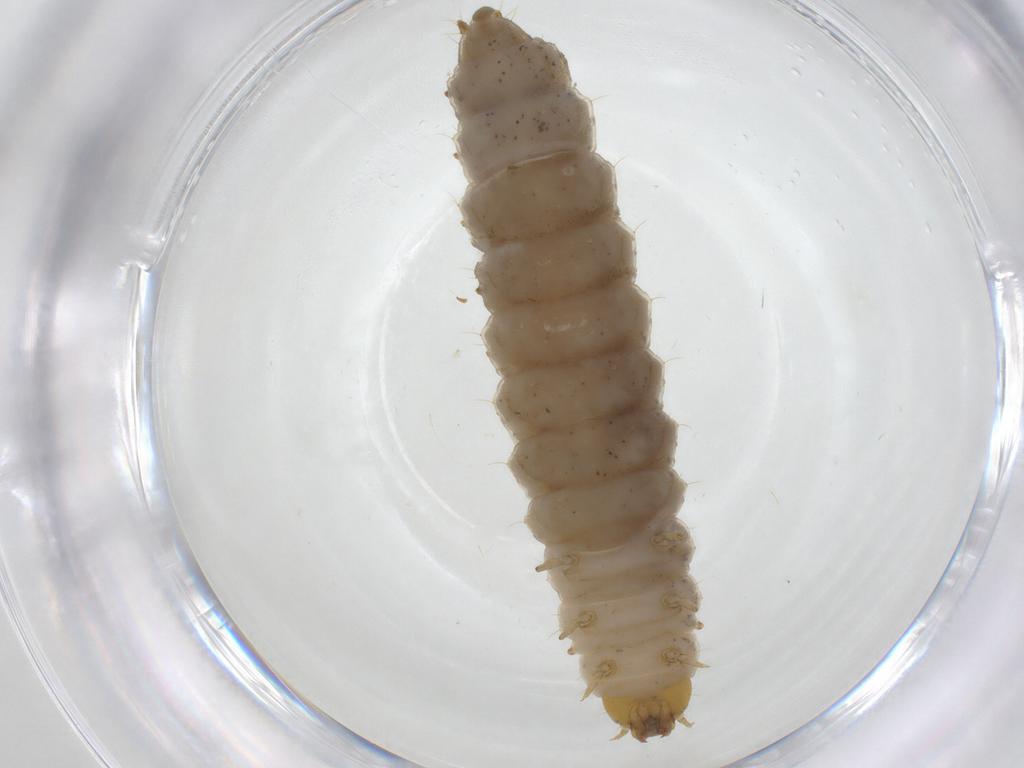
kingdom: Animalia
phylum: Arthropoda
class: Insecta
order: Coleoptera
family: Nitidulidae
